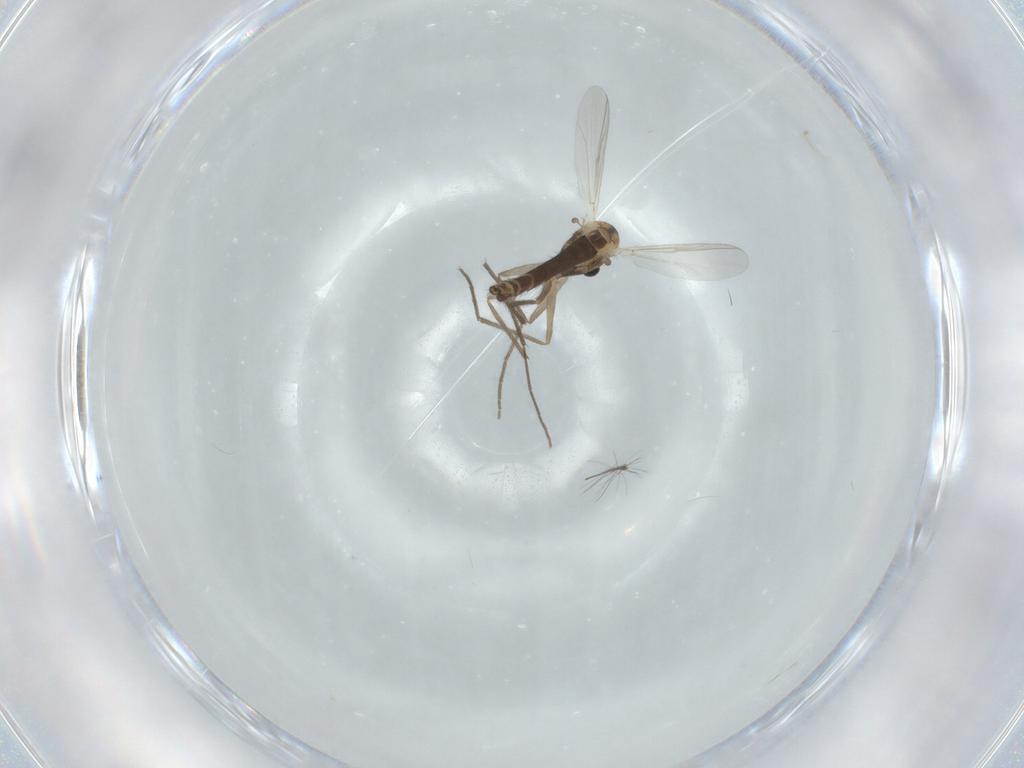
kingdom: Animalia
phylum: Arthropoda
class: Insecta
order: Diptera
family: Chironomidae
